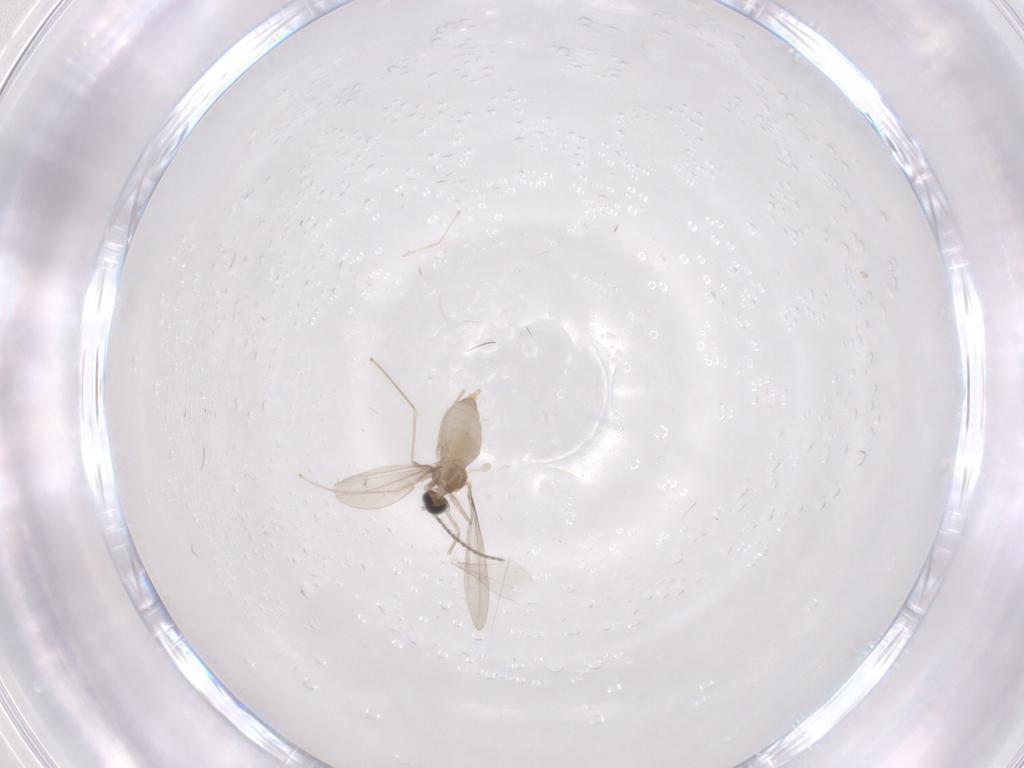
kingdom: Animalia
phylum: Arthropoda
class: Insecta
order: Diptera
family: Cecidomyiidae
